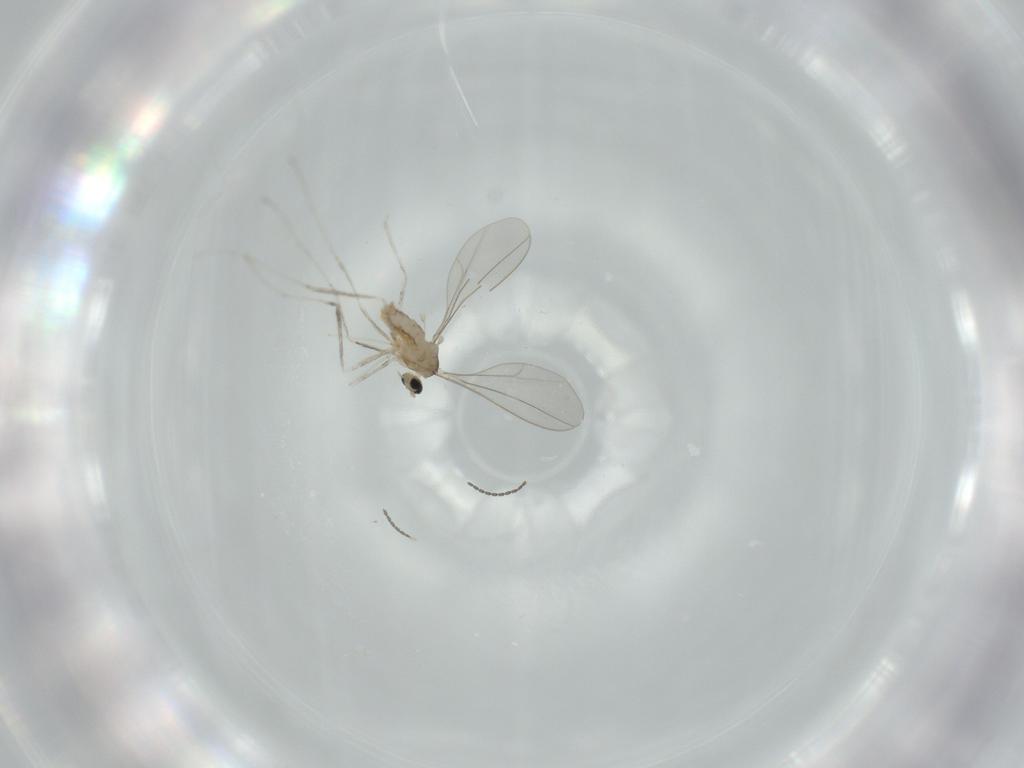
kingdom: Animalia
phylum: Arthropoda
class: Insecta
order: Diptera
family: Cecidomyiidae
